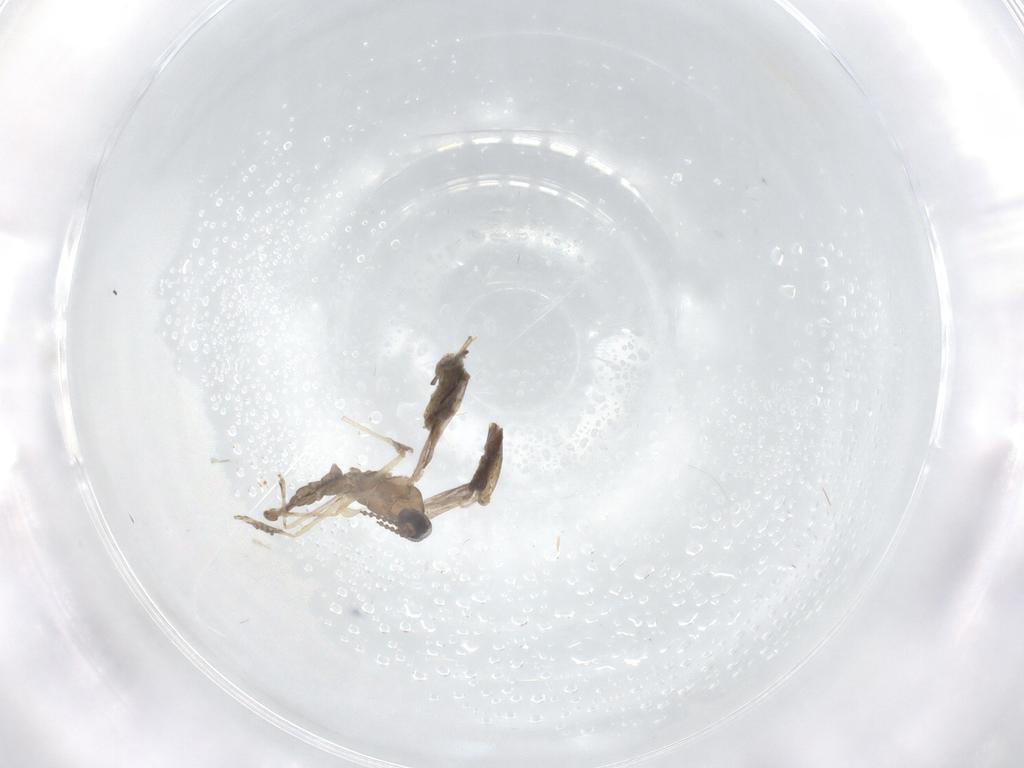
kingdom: Animalia
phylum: Arthropoda
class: Insecta
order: Diptera
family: Cecidomyiidae
